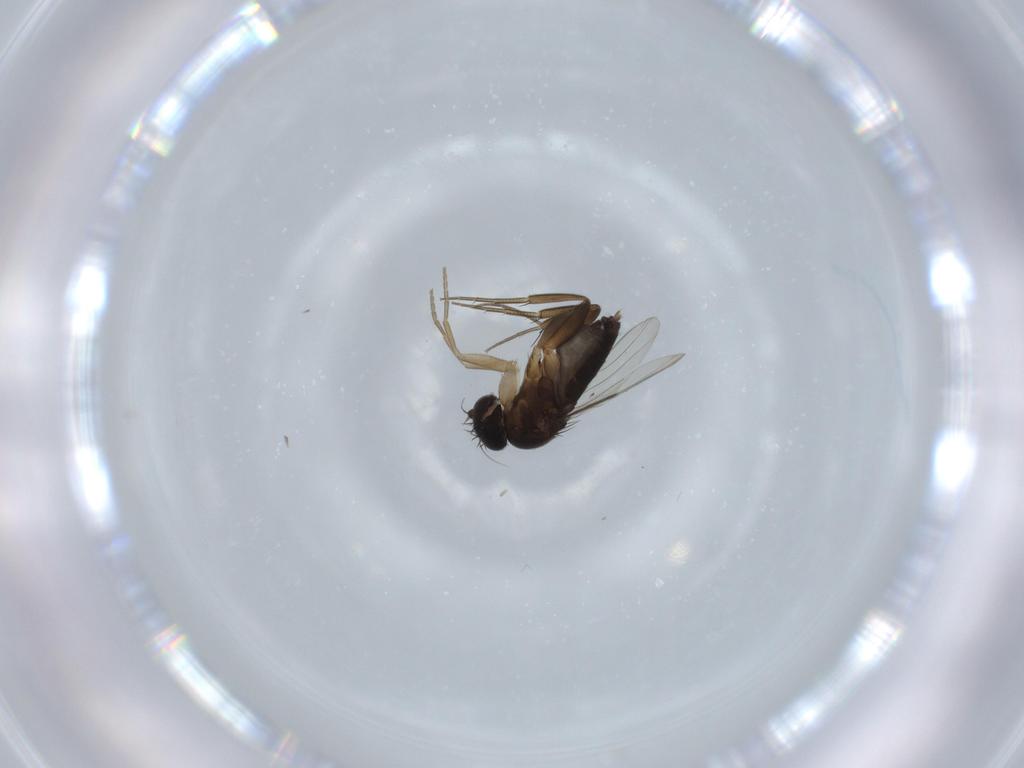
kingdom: Animalia
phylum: Arthropoda
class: Insecta
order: Diptera
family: Phoridae
